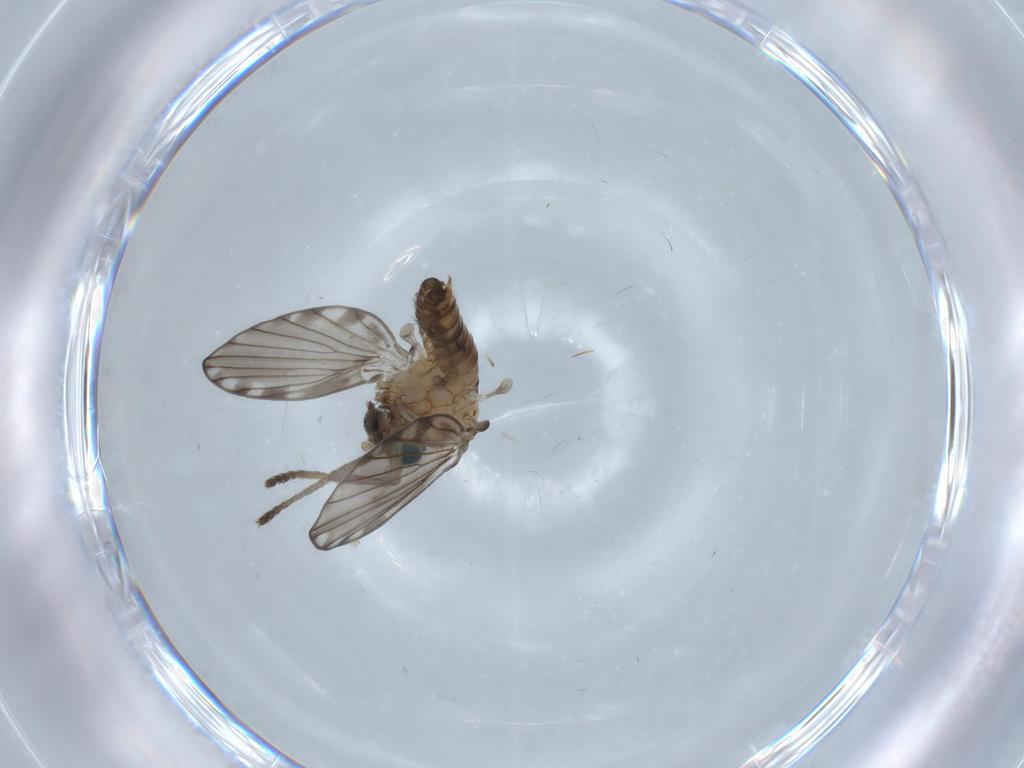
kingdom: Animalia
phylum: Arthropoda
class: Insecta
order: Diptera
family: Chironomidae
